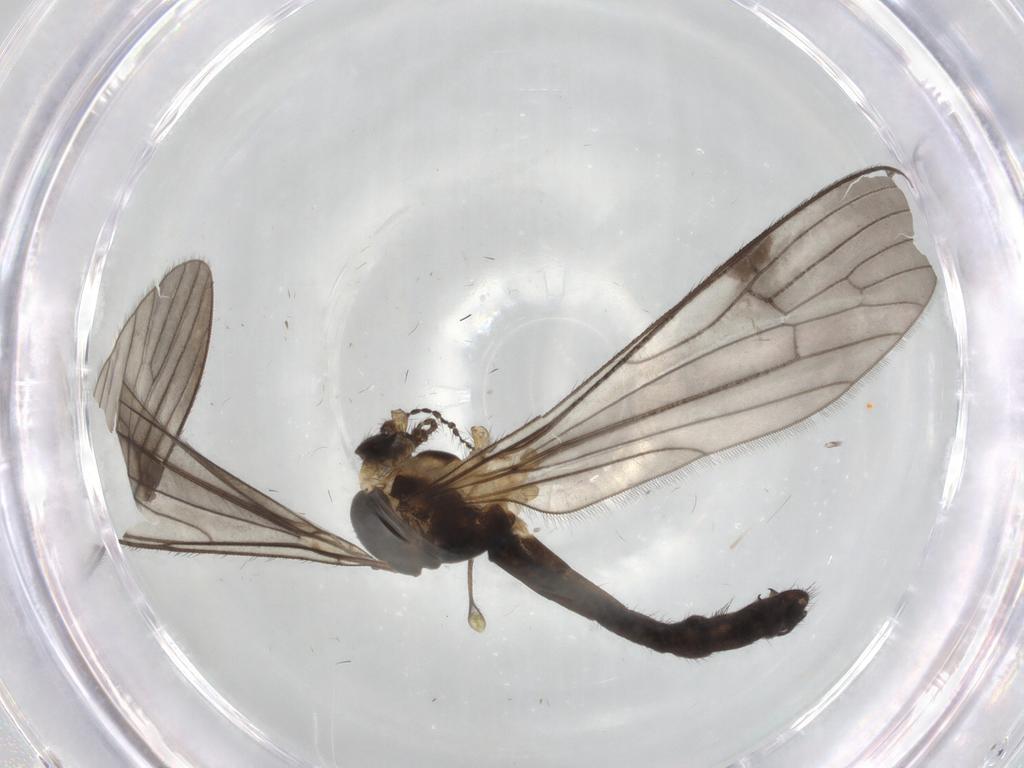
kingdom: Animalia
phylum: Arthropoda
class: Insecta
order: Diptera
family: Limoniidae
